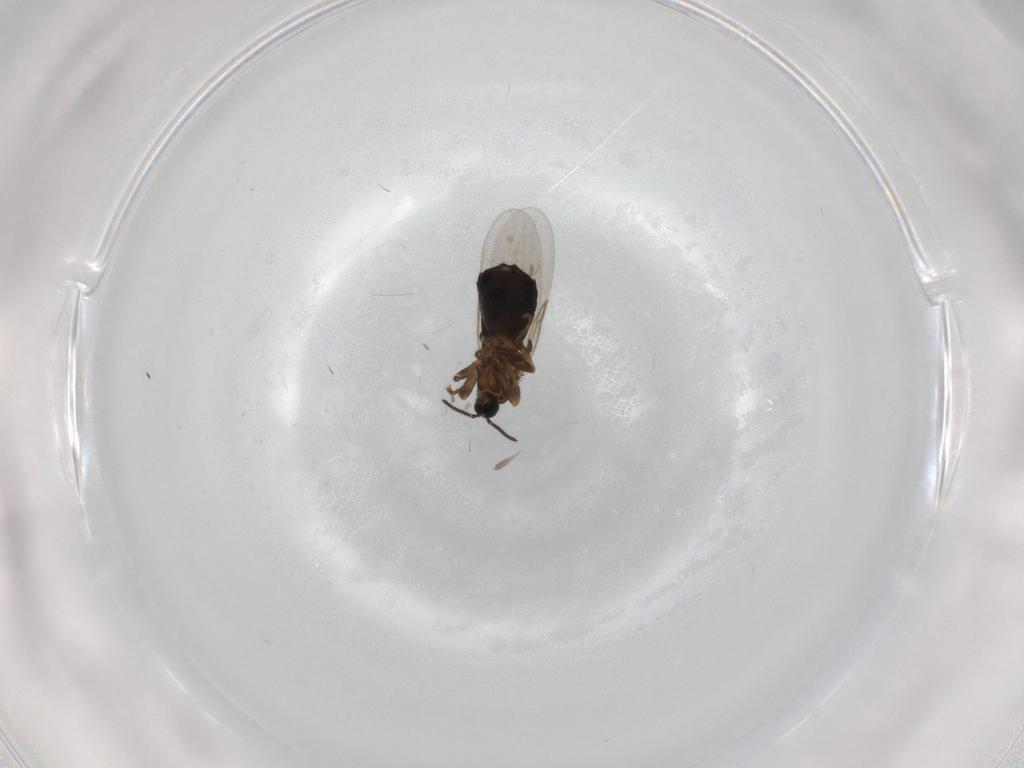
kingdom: Animalia
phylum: Arthropoda
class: Insecta
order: Diptera
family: Scatopsidae
